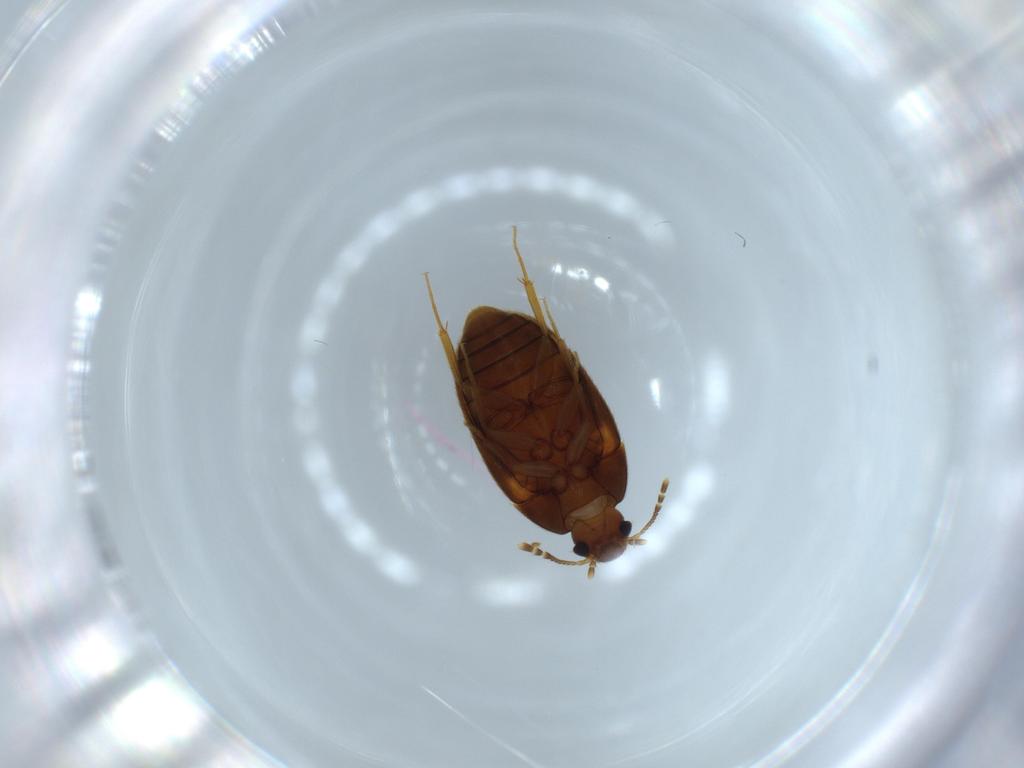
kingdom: Animalia
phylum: Arthropoda
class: Insecta
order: Coleoptera
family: Mycetophagidae
